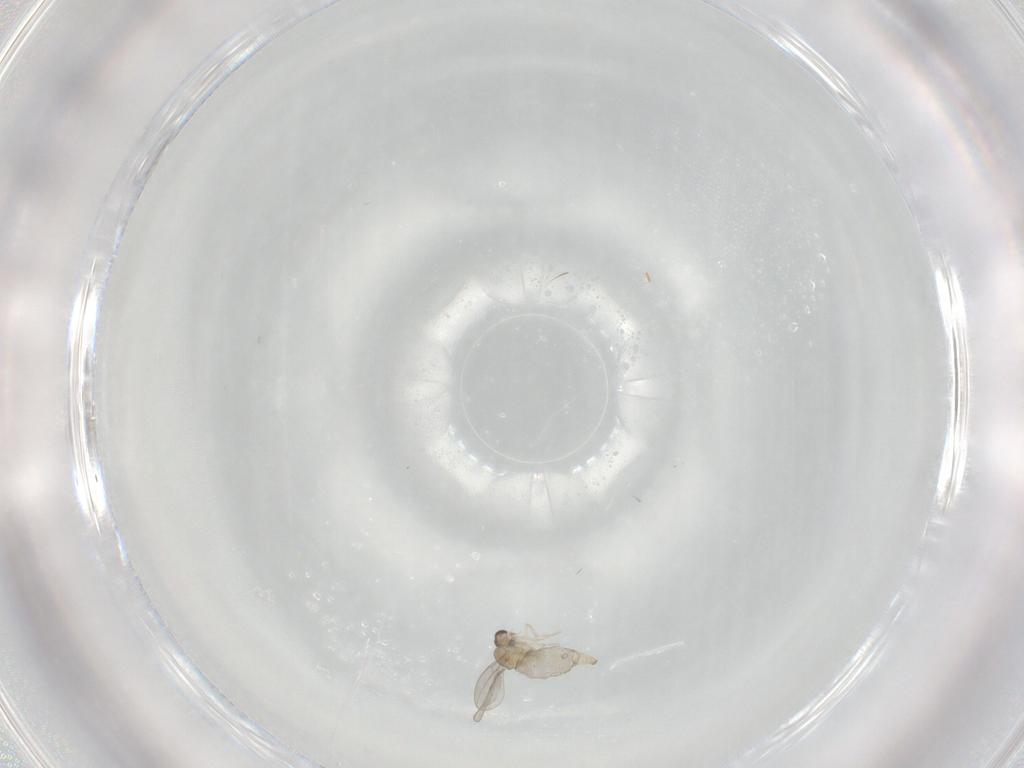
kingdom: Animalia
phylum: Arthropoda
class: Insecta
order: Diptera
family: Cecidomyiidae
